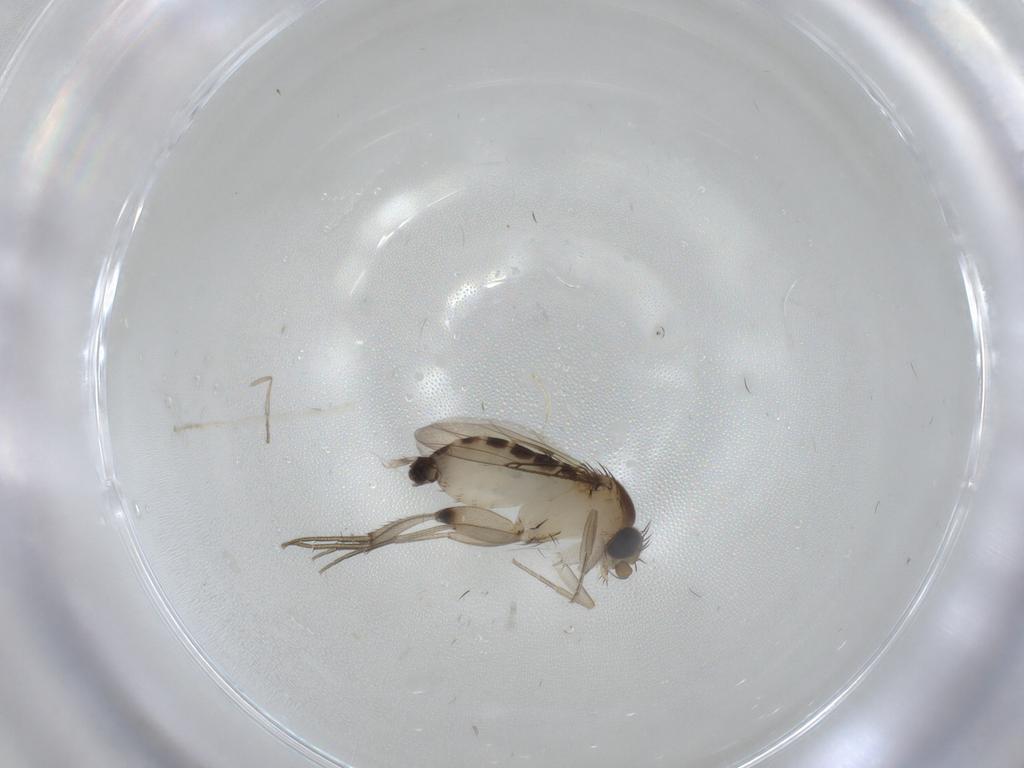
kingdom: Animalia
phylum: Arthropoda
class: Insecta
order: Diptera
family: Phoridae
